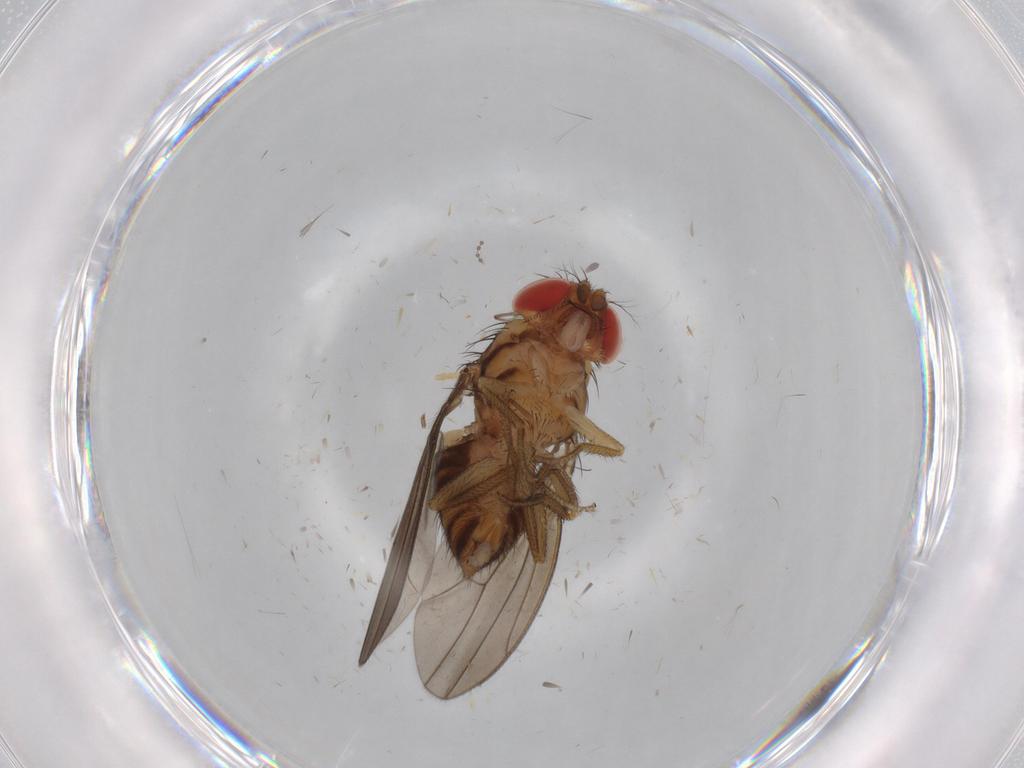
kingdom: Animalia
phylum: Arthropoda
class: Insecta
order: Diptera
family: Drosophilidae
